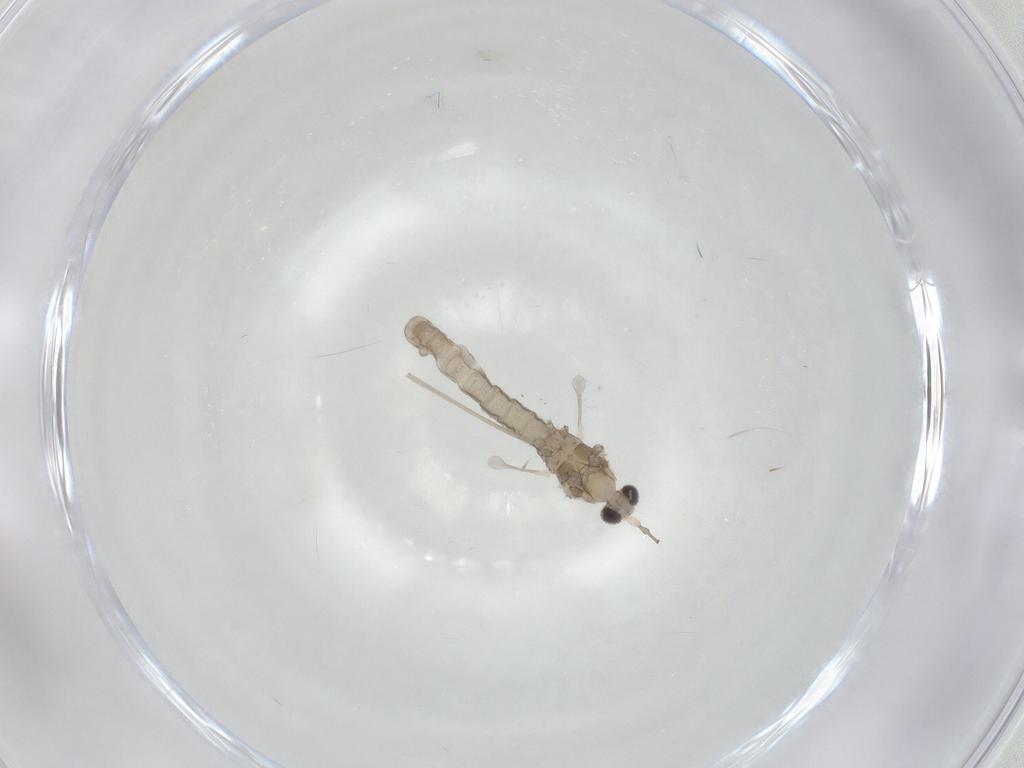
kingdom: Animalia
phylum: Arthropoda
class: Insecta
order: Diptera
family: Cecidomyiidae
